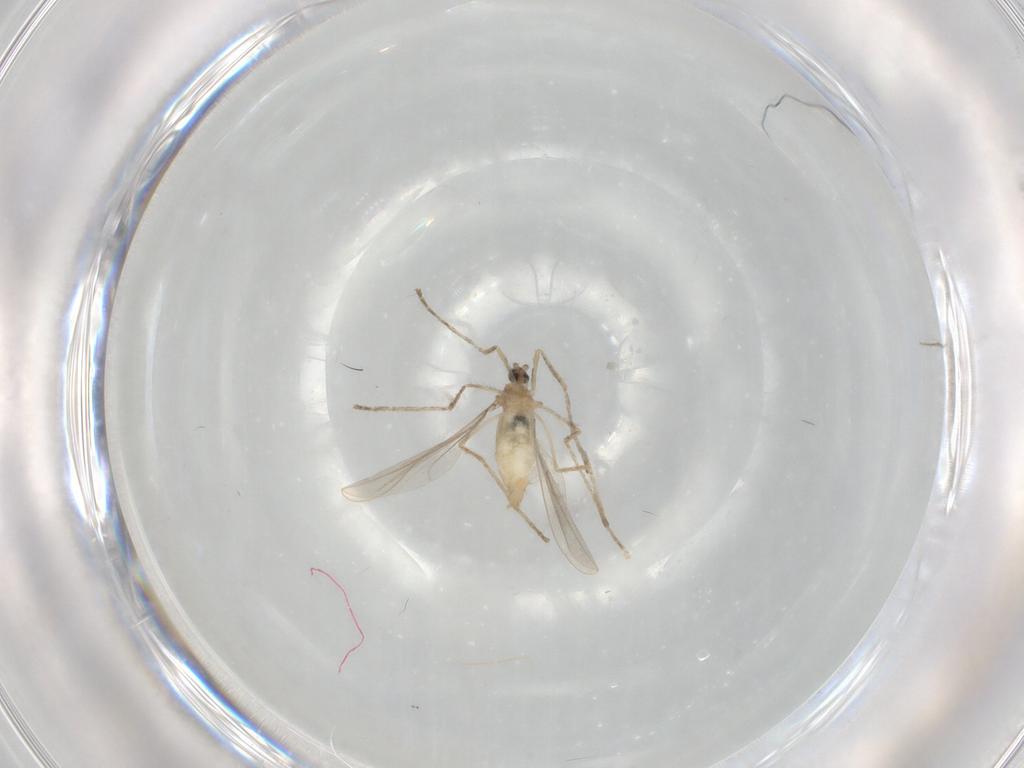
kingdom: Animalia
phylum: Arthropoda
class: Insecta
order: Diptera
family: Cecidomyiidae
